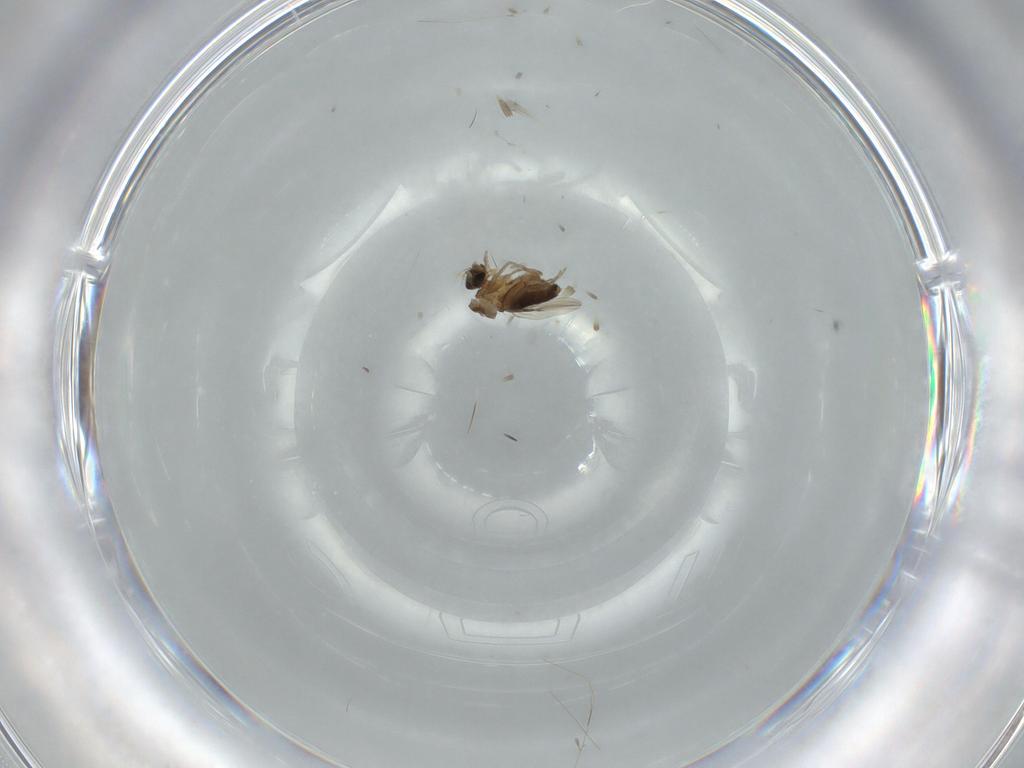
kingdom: Animalia
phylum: Arthropoda
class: Insecta
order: Diptera
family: Phoridae
